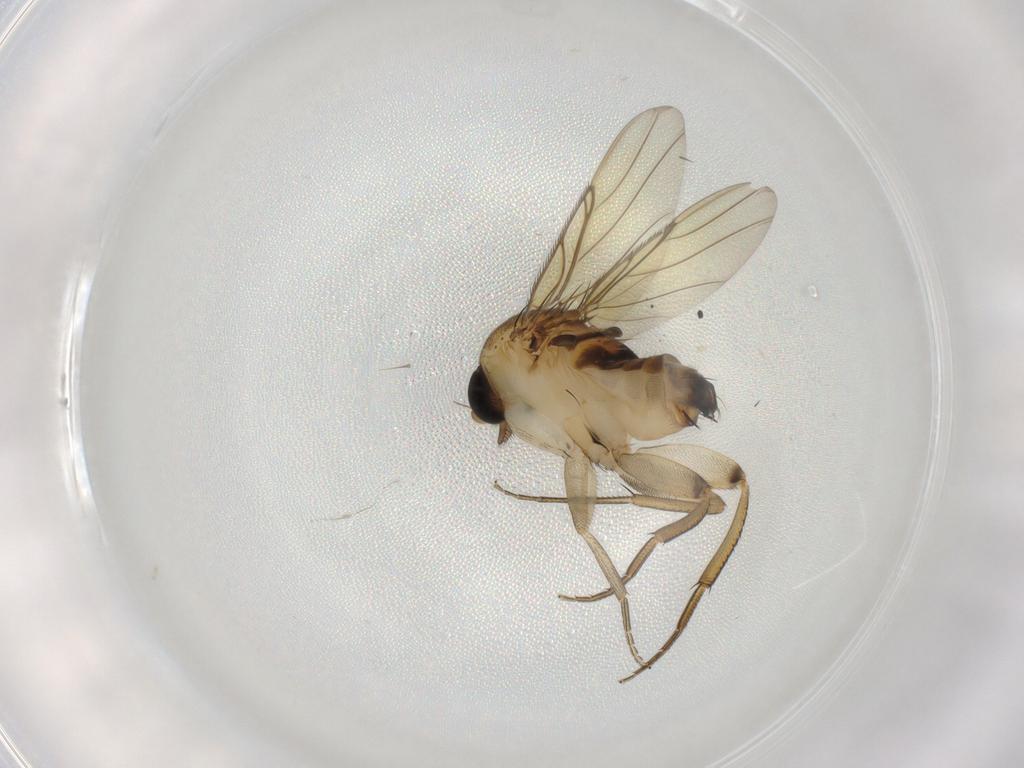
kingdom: Animalia
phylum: Arthropoda
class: Insecta
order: Diptera
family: Phoridae
